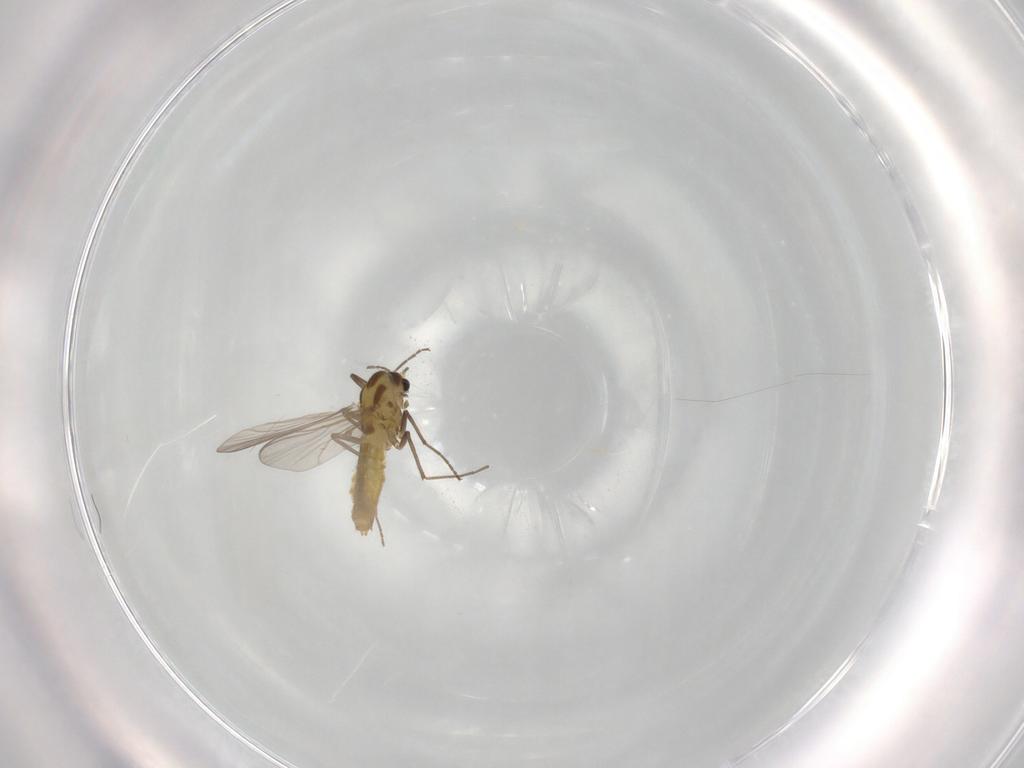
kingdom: Animalia
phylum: Arthropoda
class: Insecta
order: Diptera
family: Chironomidae
